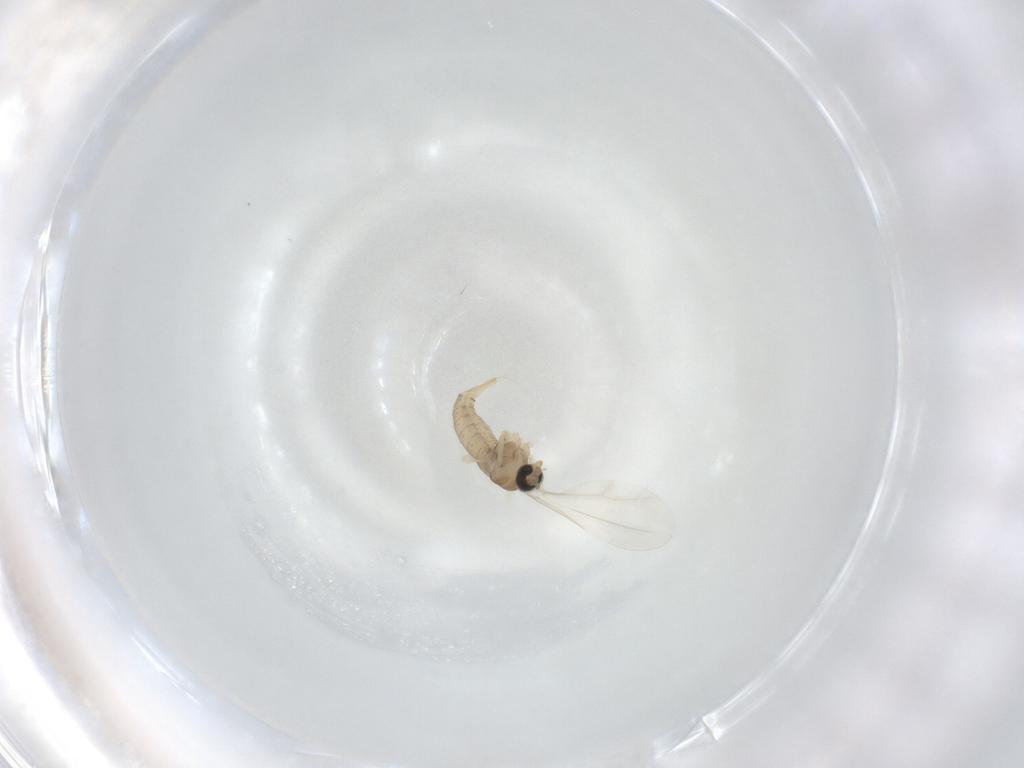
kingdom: Animalia
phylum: Arthropoda
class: Insecta
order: Diptera
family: Cecidomyiidae
